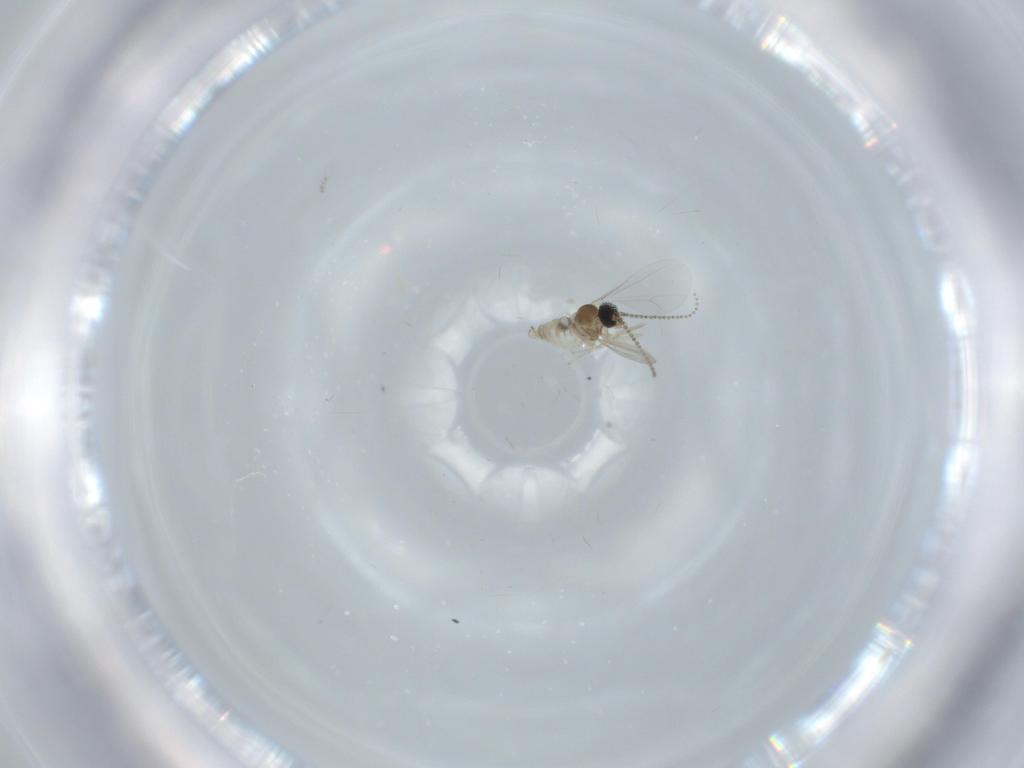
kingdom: Animalia
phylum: Arthropoda
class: Insecta
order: Diptera
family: Cecidomyiidae
